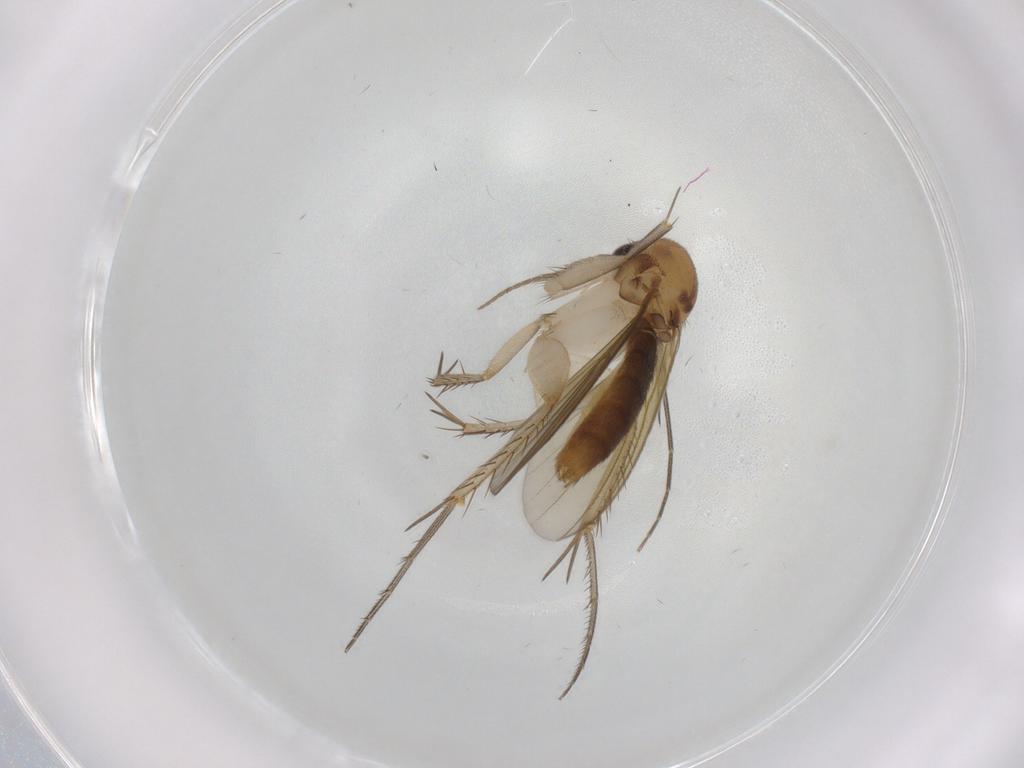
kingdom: Animalia
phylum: Arthropoda
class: Insecta
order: Diptera
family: Mycetophilidae
